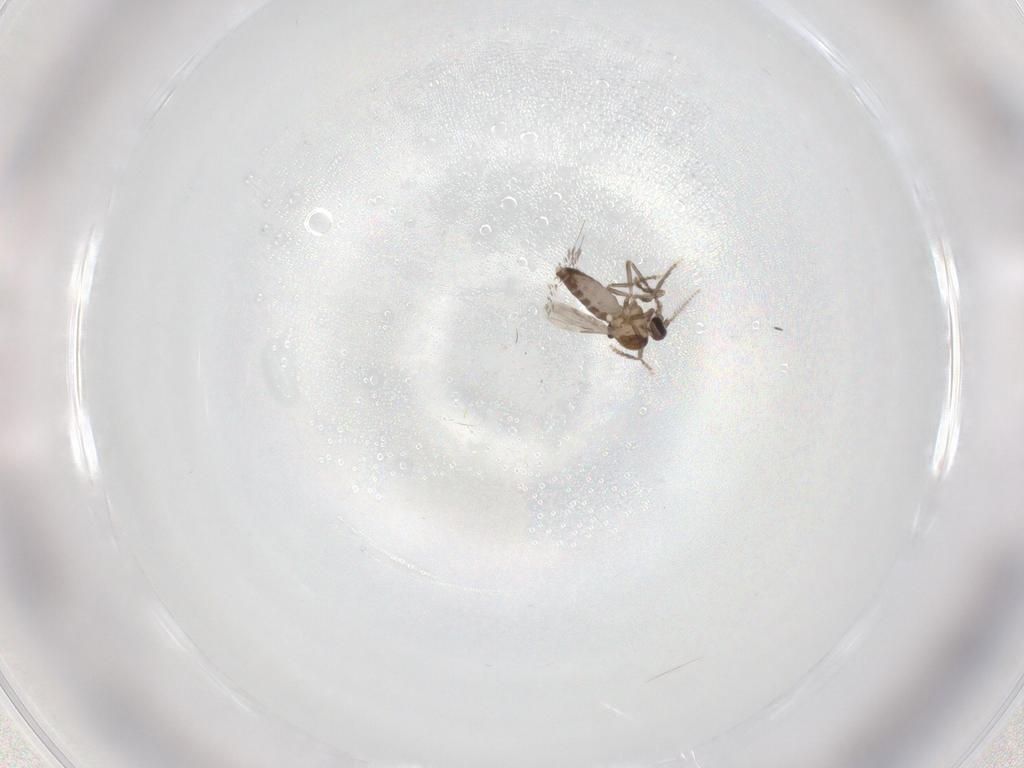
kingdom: Animalia
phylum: Arthropoda
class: Insecta
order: Diptera
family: Ceratopogonidae
